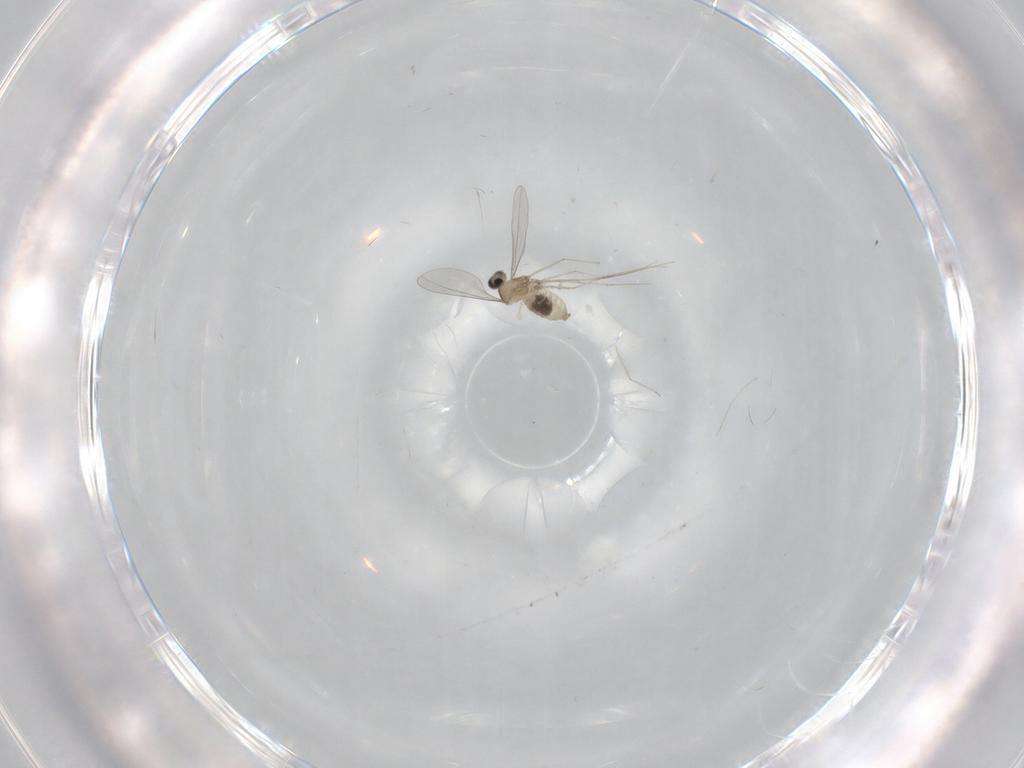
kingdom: Animalia
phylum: Arthropoda
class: Insecta
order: Diptera
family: Cecidomyiidae
